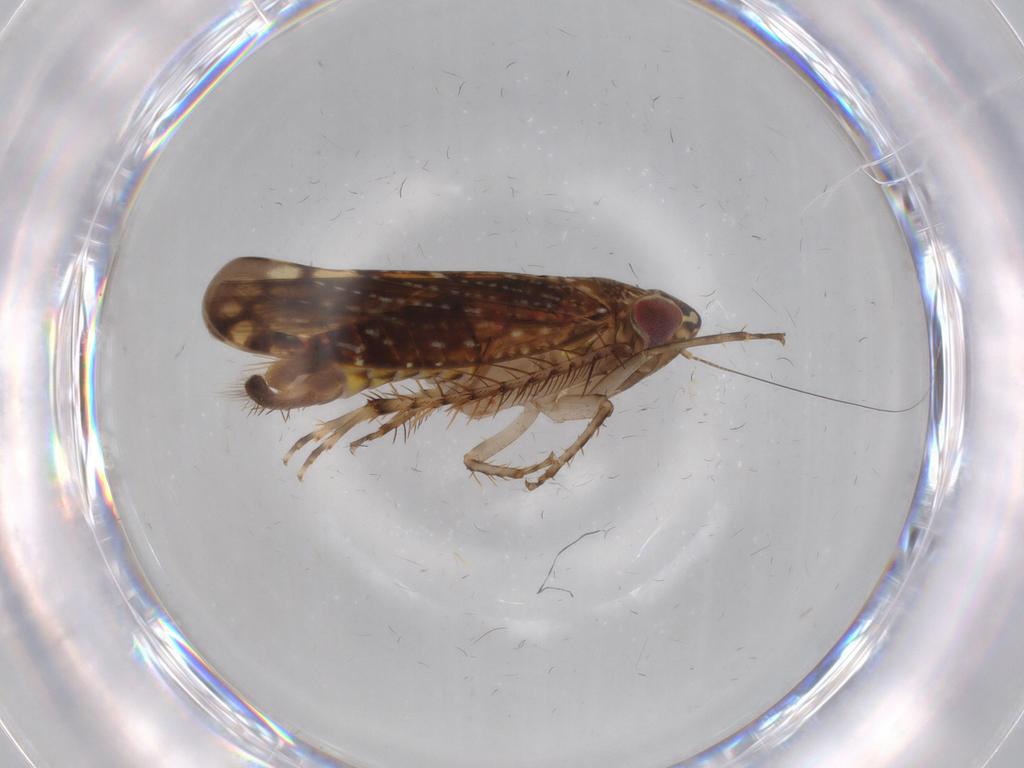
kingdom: Animalia
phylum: Arthropoda
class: Insecta
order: Hemiptera
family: Cicadellidae
